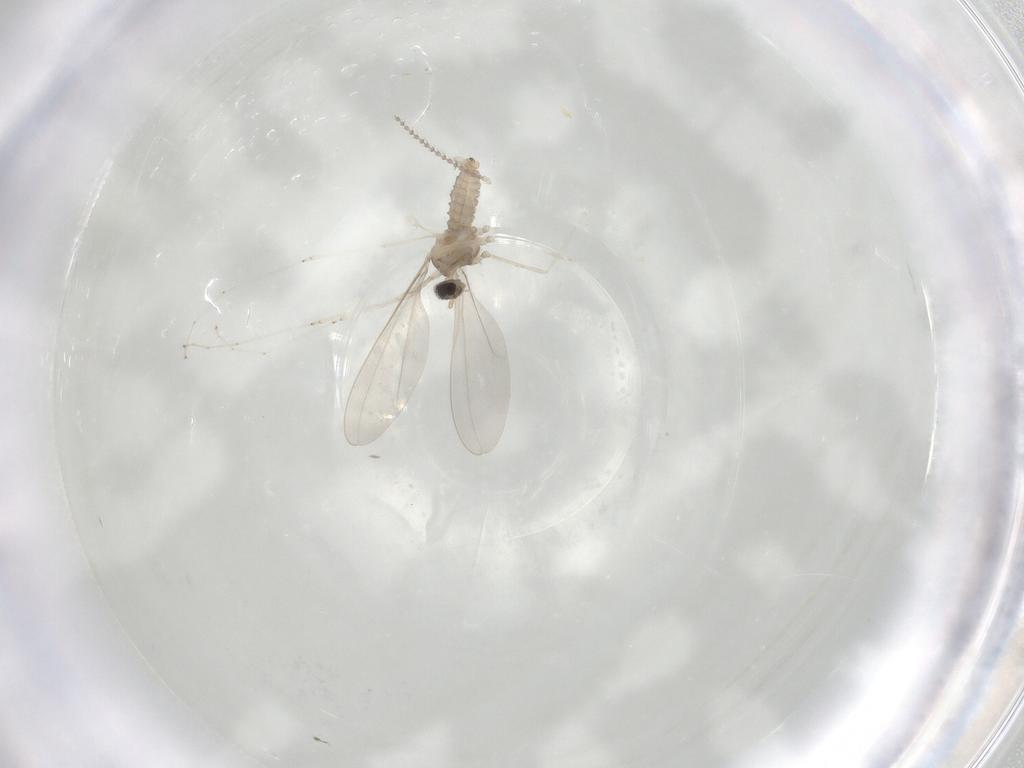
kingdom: Animalia
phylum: Arthropoda
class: Insecta
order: Diptera
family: Cecidomyiidae
